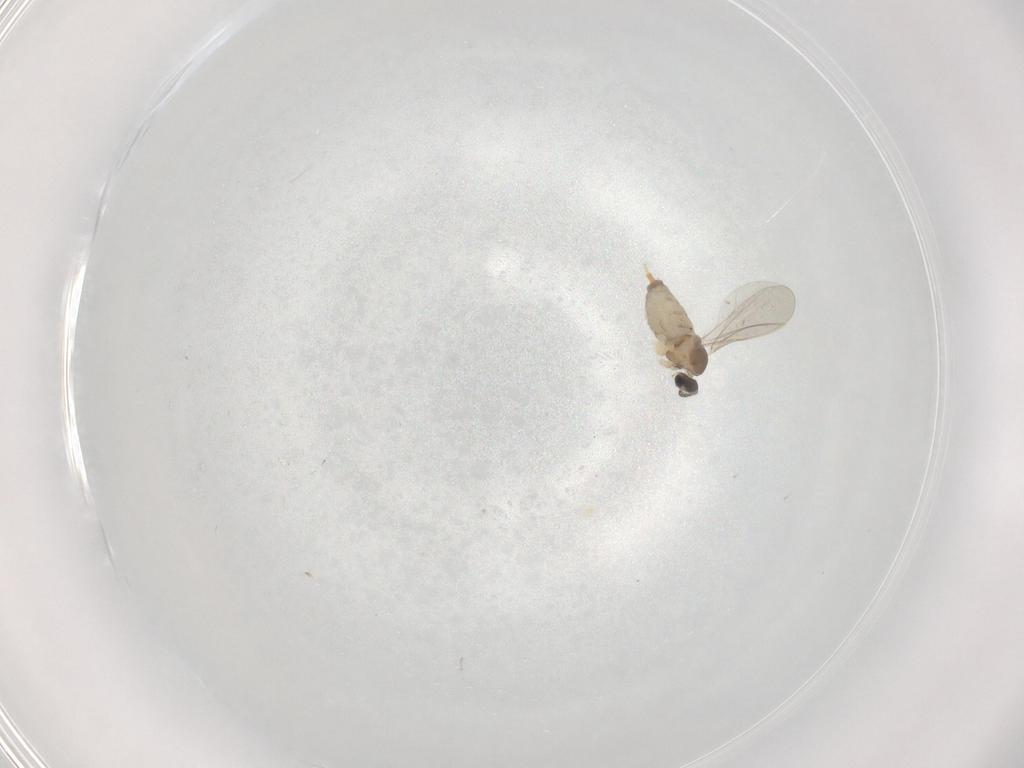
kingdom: Animalia
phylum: Arthropoda
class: Insecta
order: Diptera
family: Cecidomyiidae
